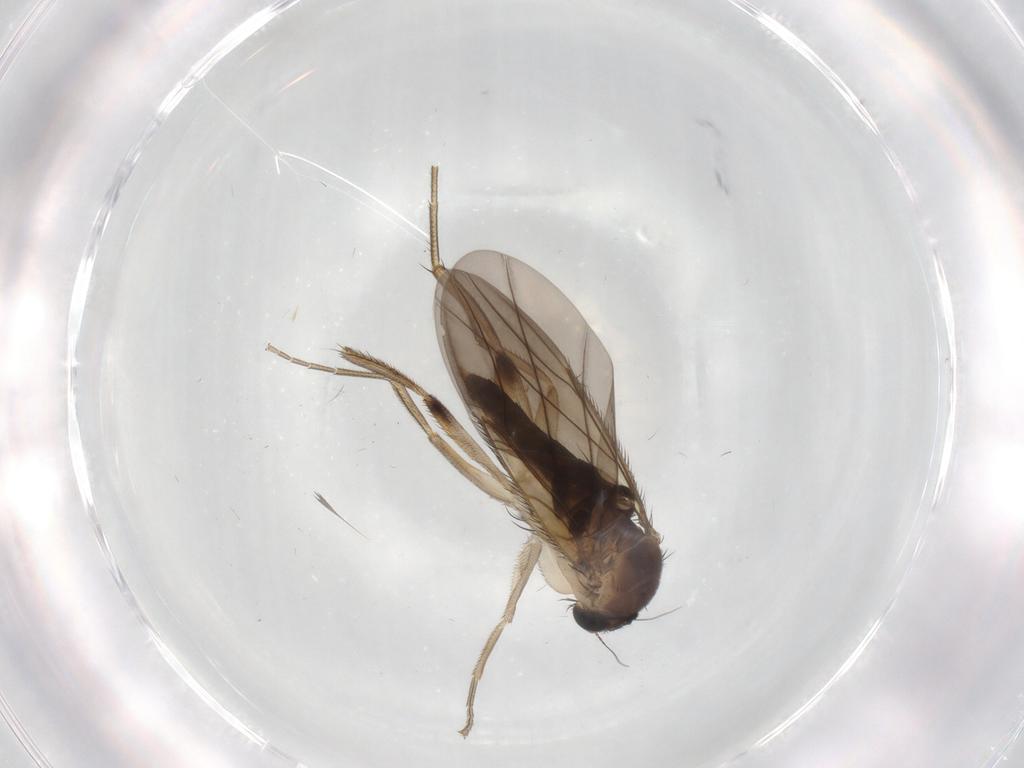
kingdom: Animalia
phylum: Arthropoda
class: Insecta
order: Diptera
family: Phoridae
